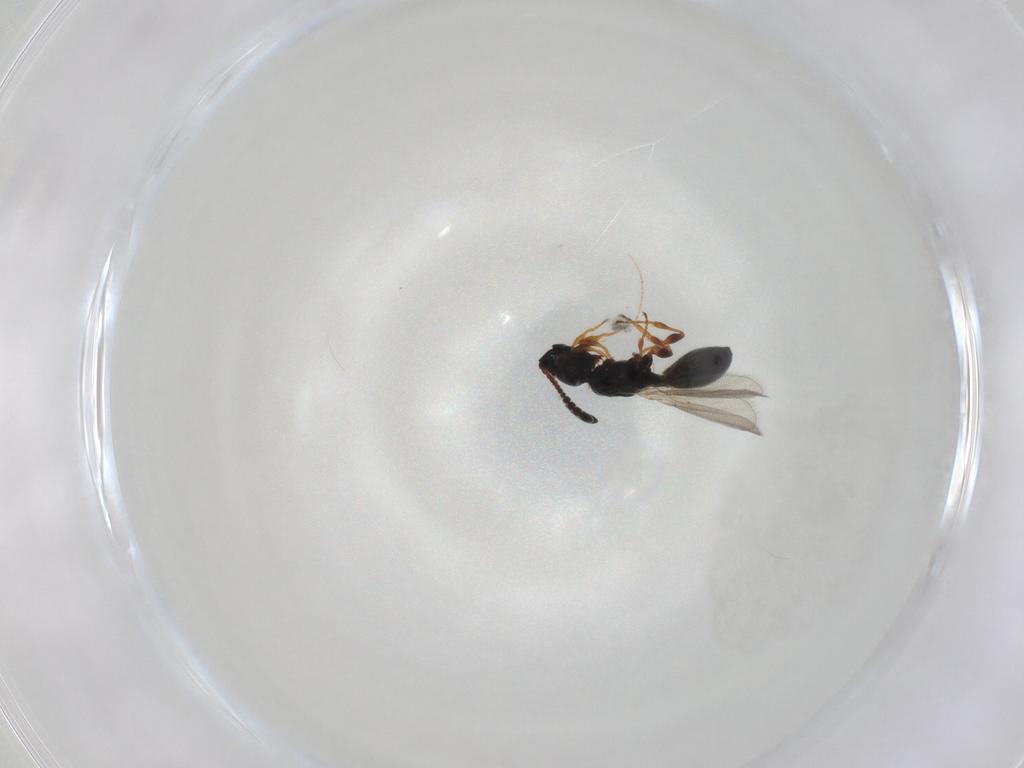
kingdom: Animalia
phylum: Arthropoda
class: Insecta
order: Hymenoptera
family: Diapriidae
